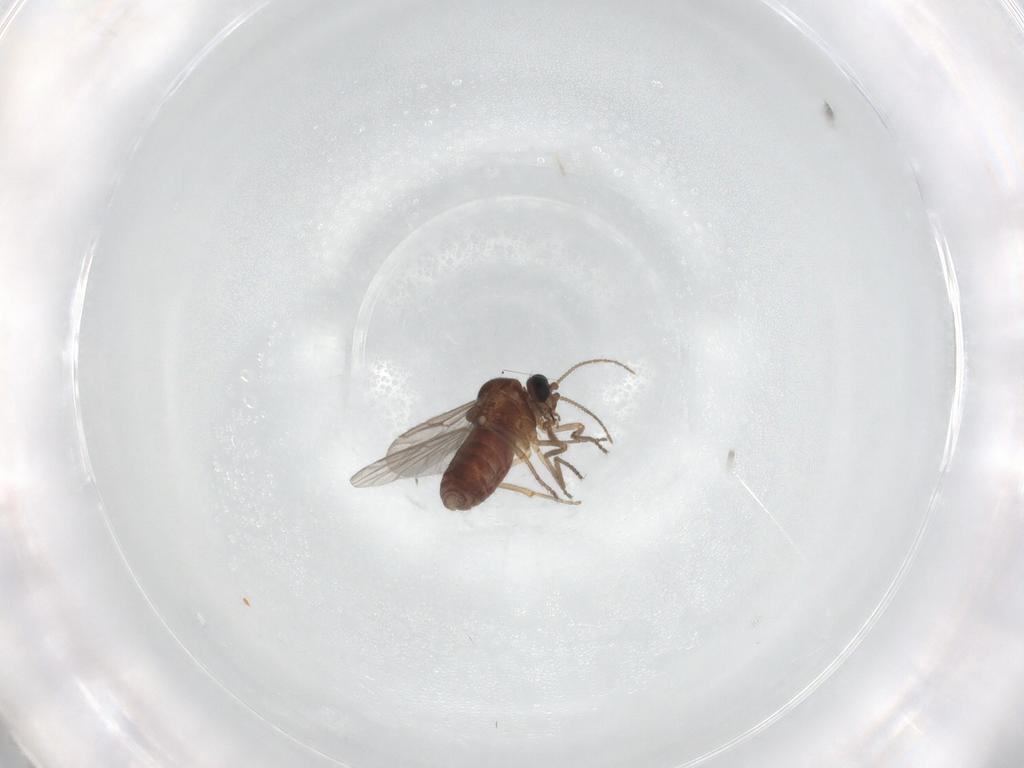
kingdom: Animalia
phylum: Arthropoda
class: Insecta
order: Diptera
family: Ceratopogonidae
